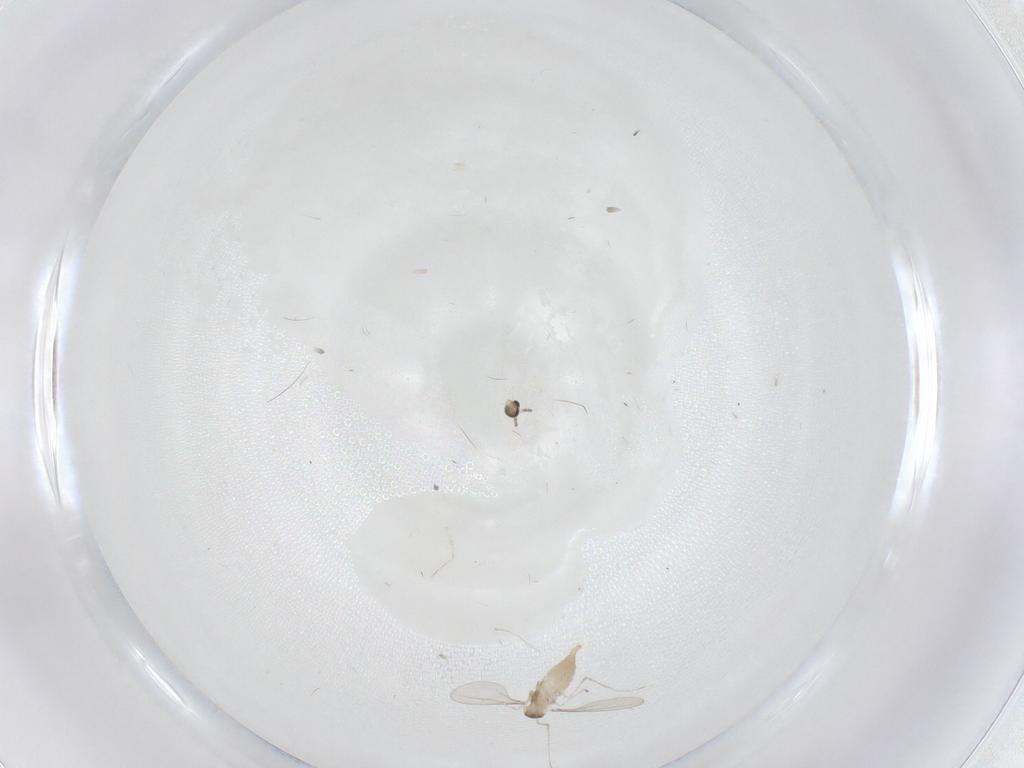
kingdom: Animalia
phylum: Arthropoda
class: Insecta
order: Diptera
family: Cecidomyiidae
